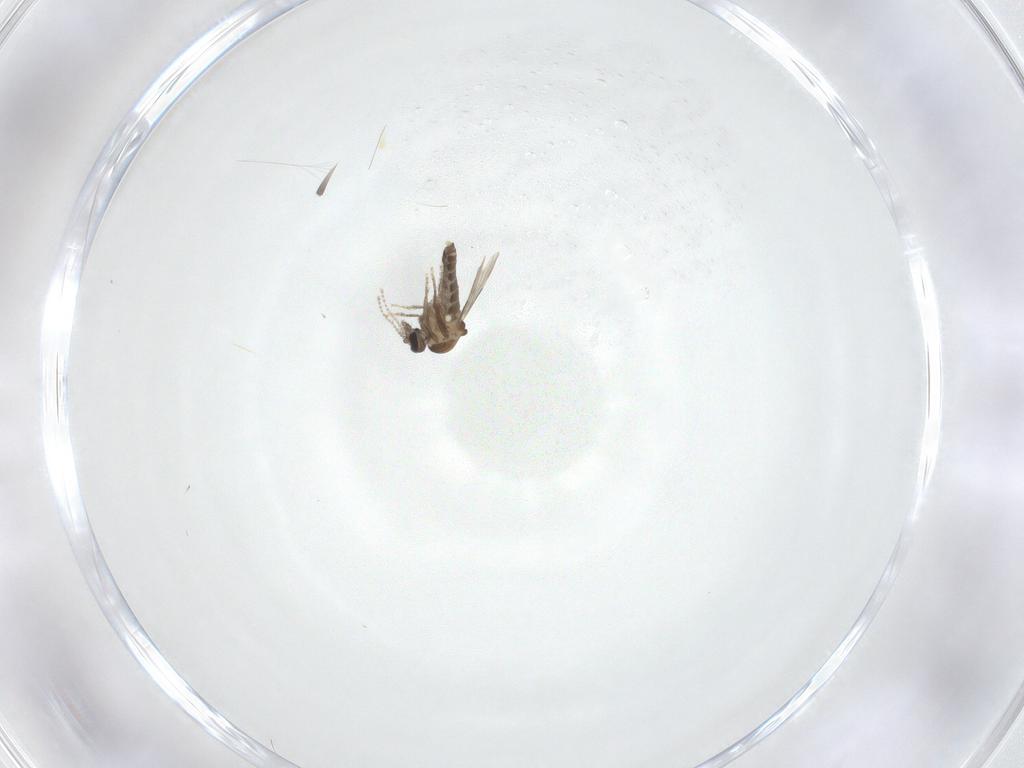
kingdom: Animalia
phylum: Arthropoda
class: Insecta
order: Diptera
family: Ceratopogonidae
